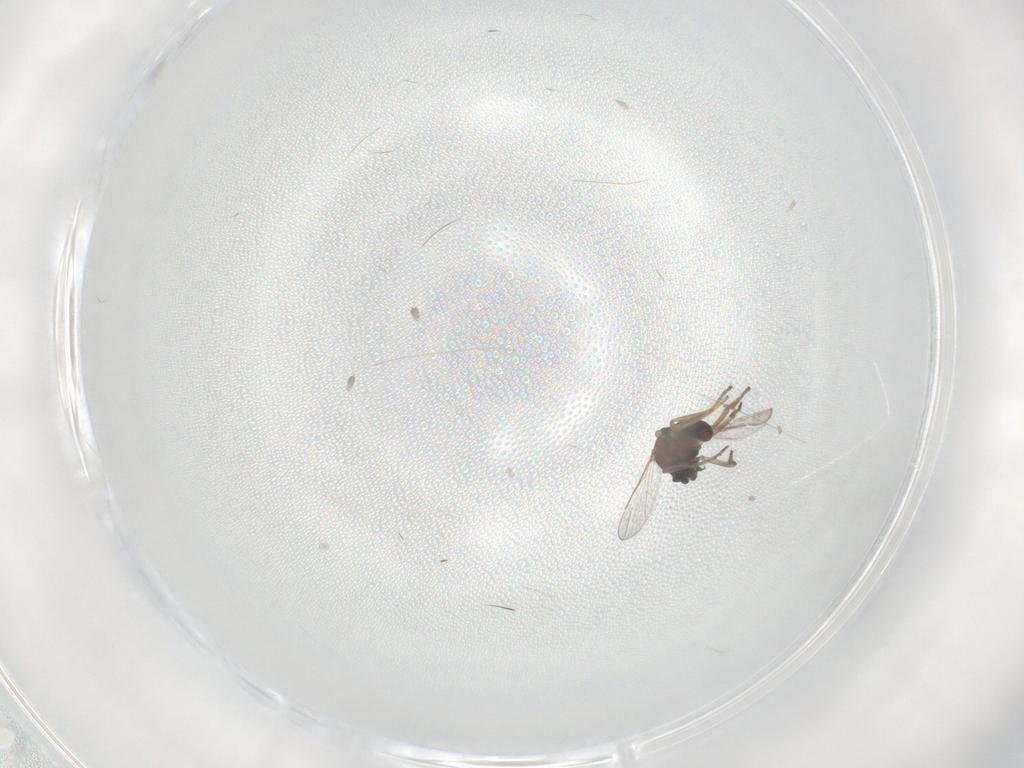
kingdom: Animalia
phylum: Arthropoda
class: Insecta
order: Diptera
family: Ceratopogonidae
